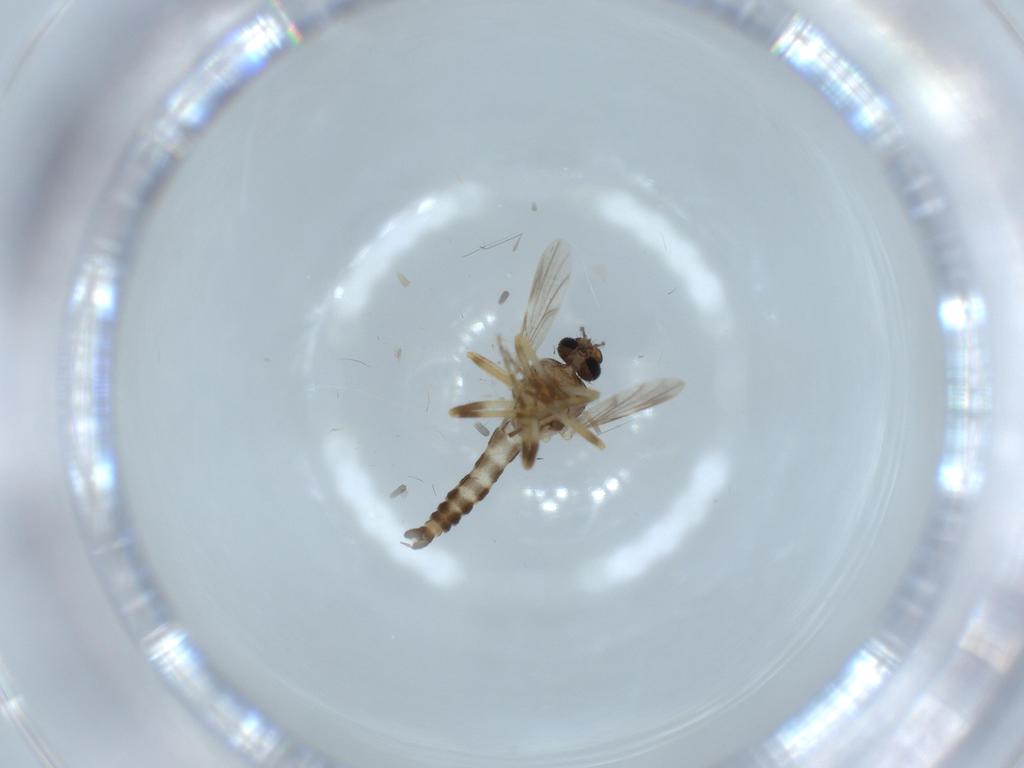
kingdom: Animalia
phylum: Arthropoda
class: Insecta
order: Diptera
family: Ceratopogonidae
